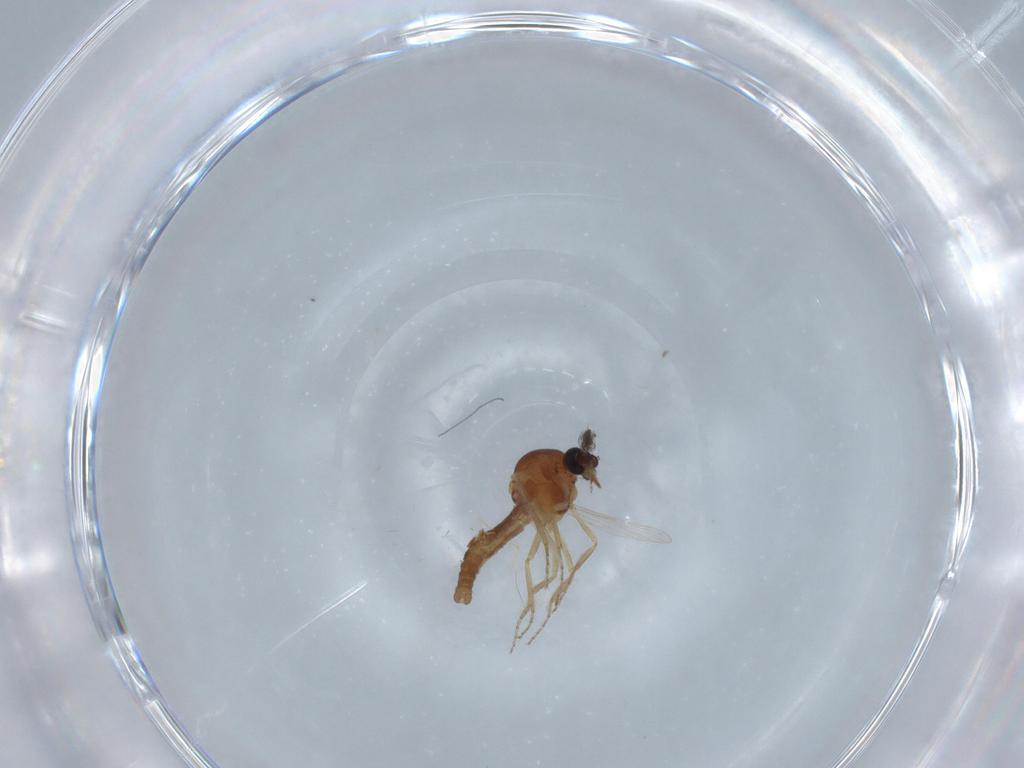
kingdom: Animalia
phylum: Arthropoda
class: Insecta
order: Diptera
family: Ceratopogonidae
